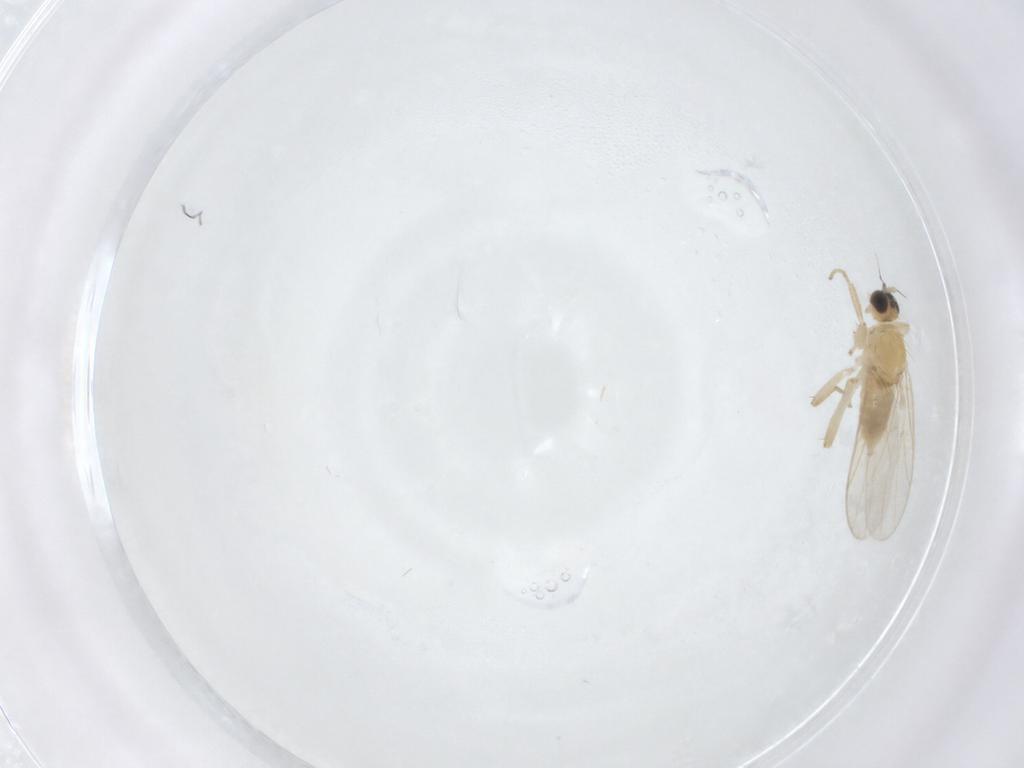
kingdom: Animalia
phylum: Arthropoda
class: Insecta
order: Diptera
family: Hybotidae
